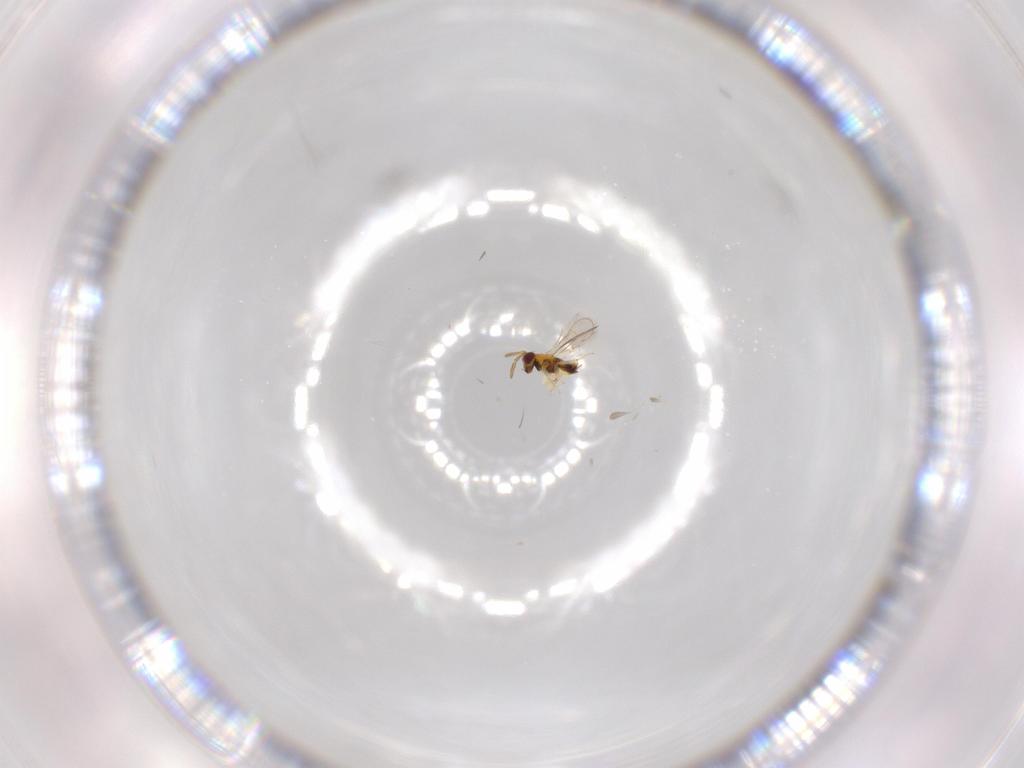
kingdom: Animalia
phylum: Arthropoda
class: Insecta
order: Hymenoptera
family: Aphelinidae
